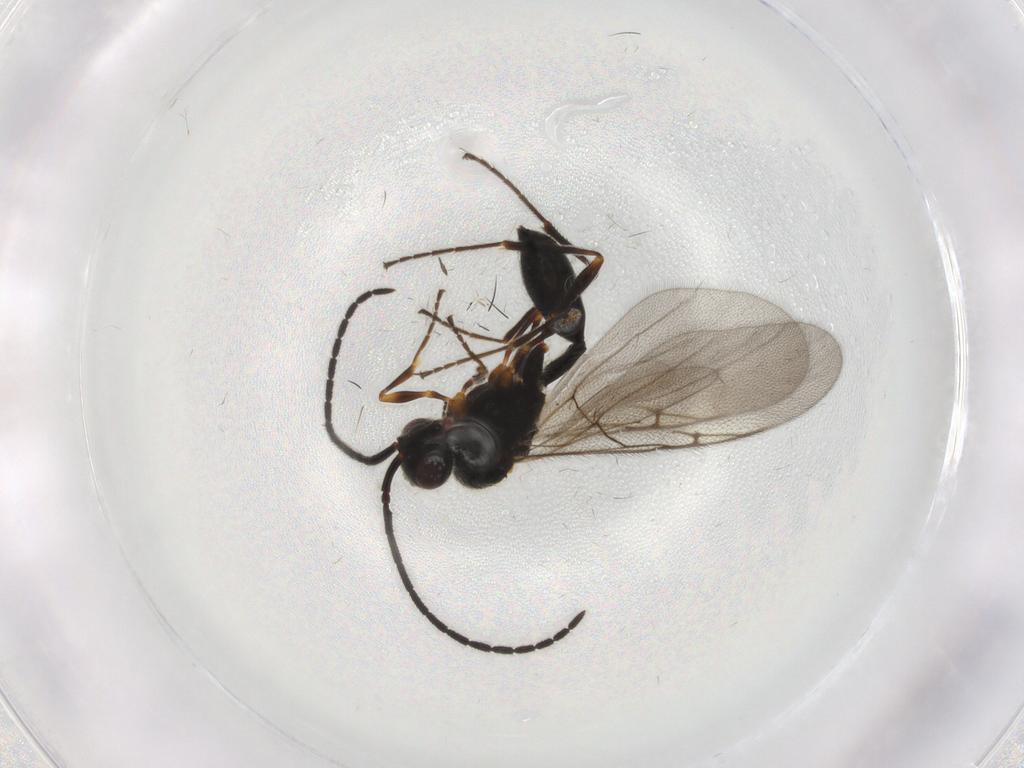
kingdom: Animalia
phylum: Arthropoda
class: Insecta
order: Hymenoptera
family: Diapriidae
